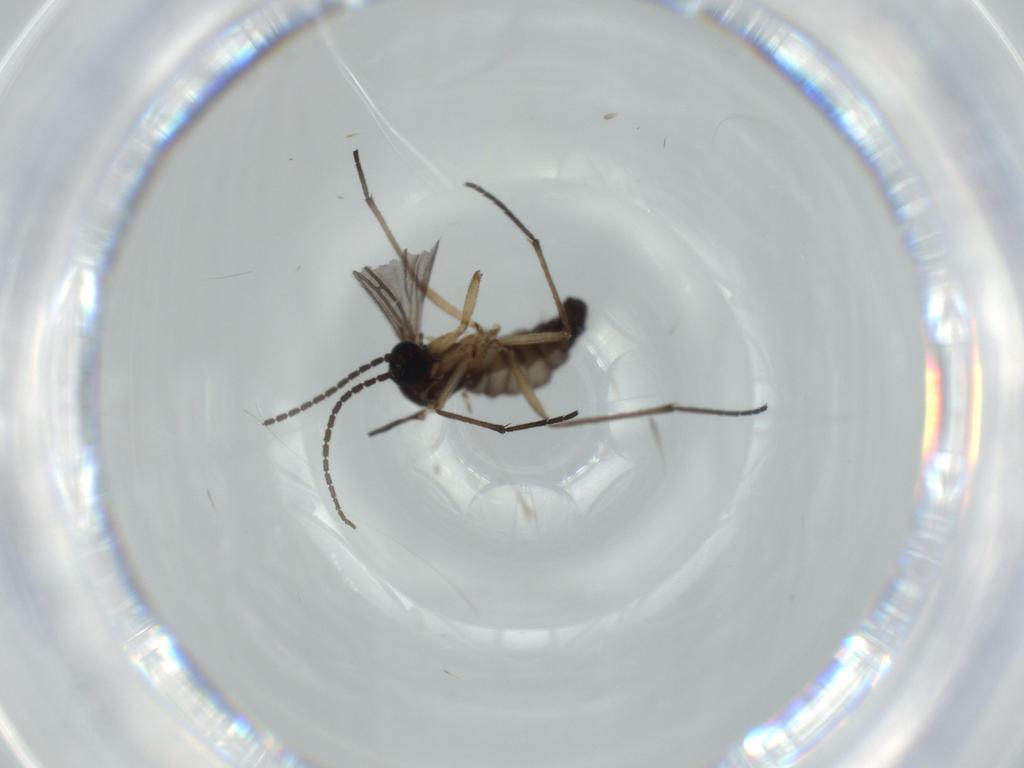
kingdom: Animalia
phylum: Arthropoda
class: Insecta
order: Diptera
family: Sciaridae
